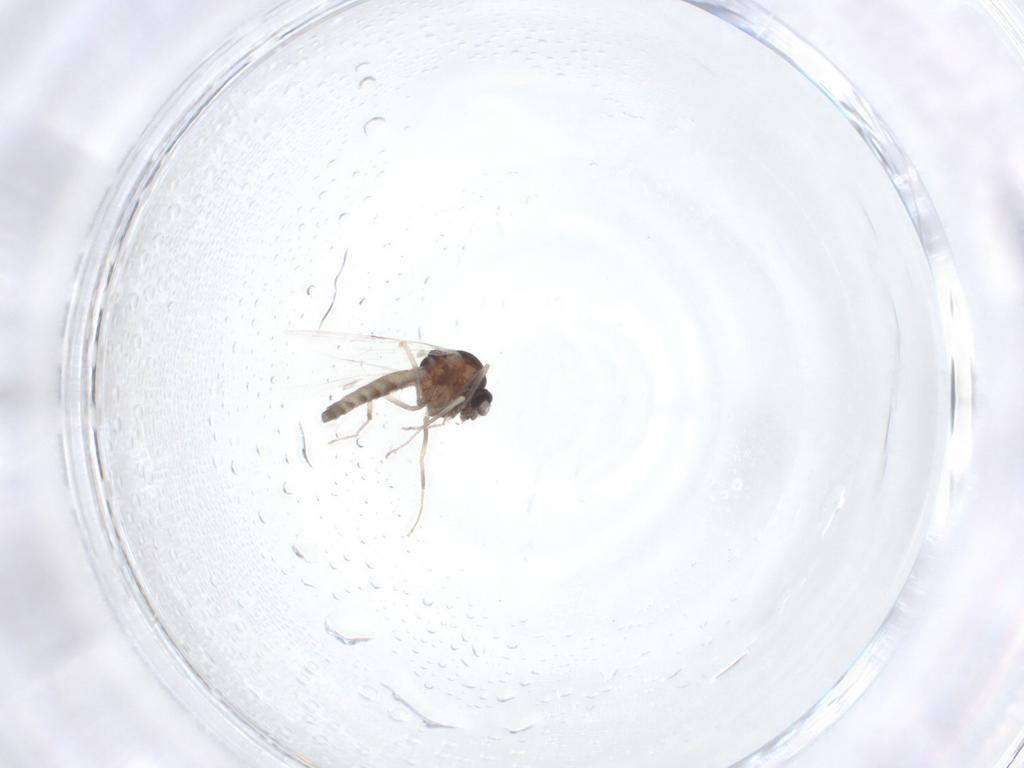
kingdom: Animalia
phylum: Arthropoda
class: Insecta
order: Diptera
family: Ceratopogonidae
